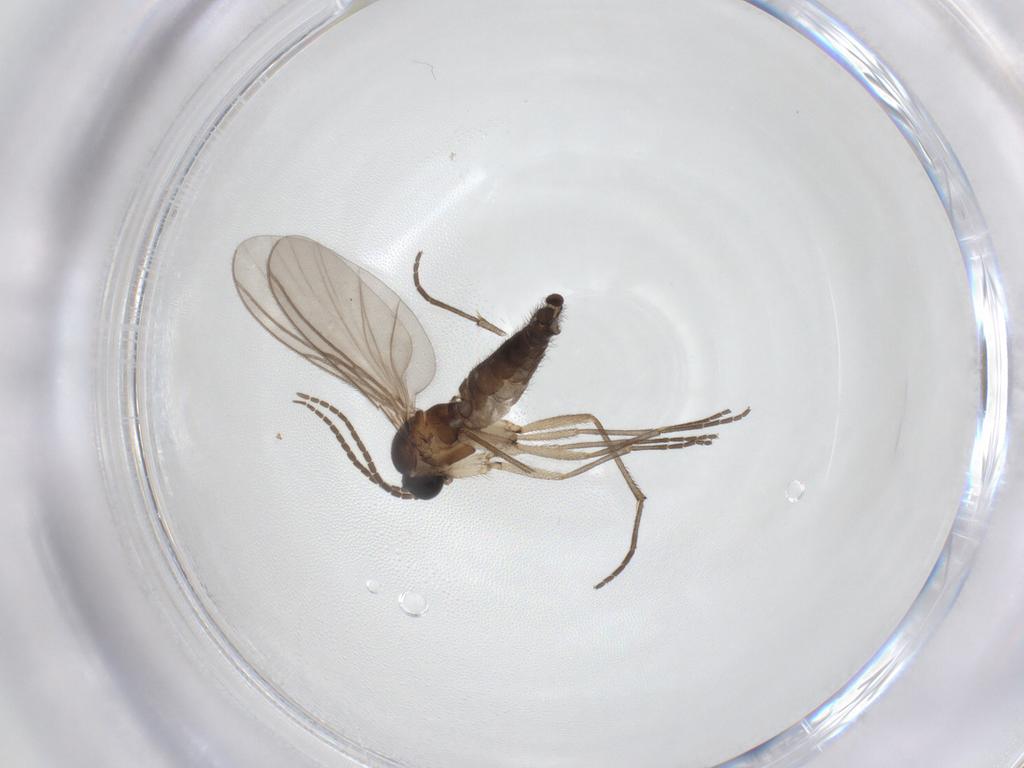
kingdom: Animalia
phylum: Arthropoda
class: Insecta
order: Diptera
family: Sciaridae
